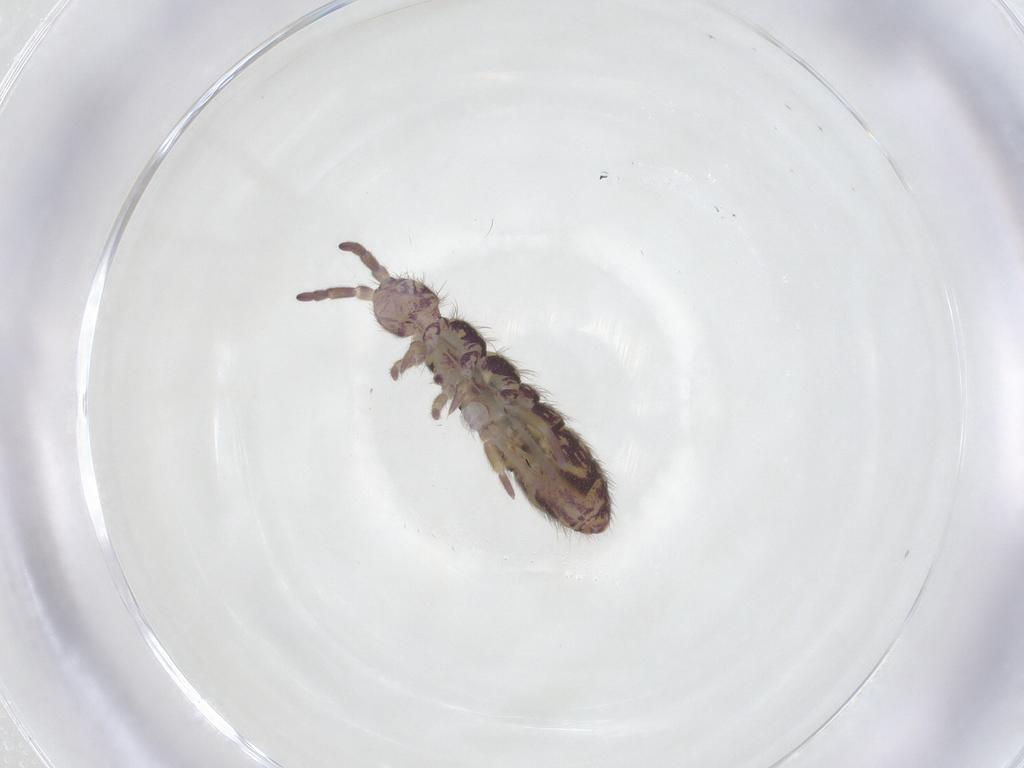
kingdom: Animalia
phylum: Arthropoda
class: Collembola
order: Entomobryomorpha
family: Isotomidae
